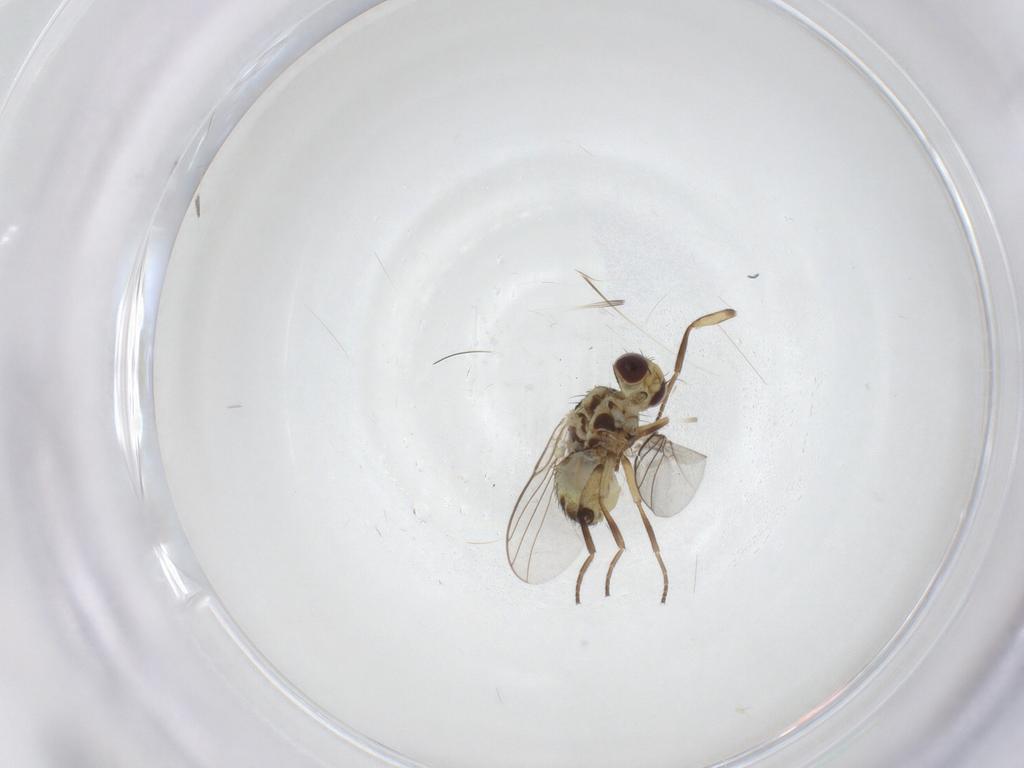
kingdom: Animalia
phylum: Arthropoda
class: Insecta
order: Diptera
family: Agromyzidae
